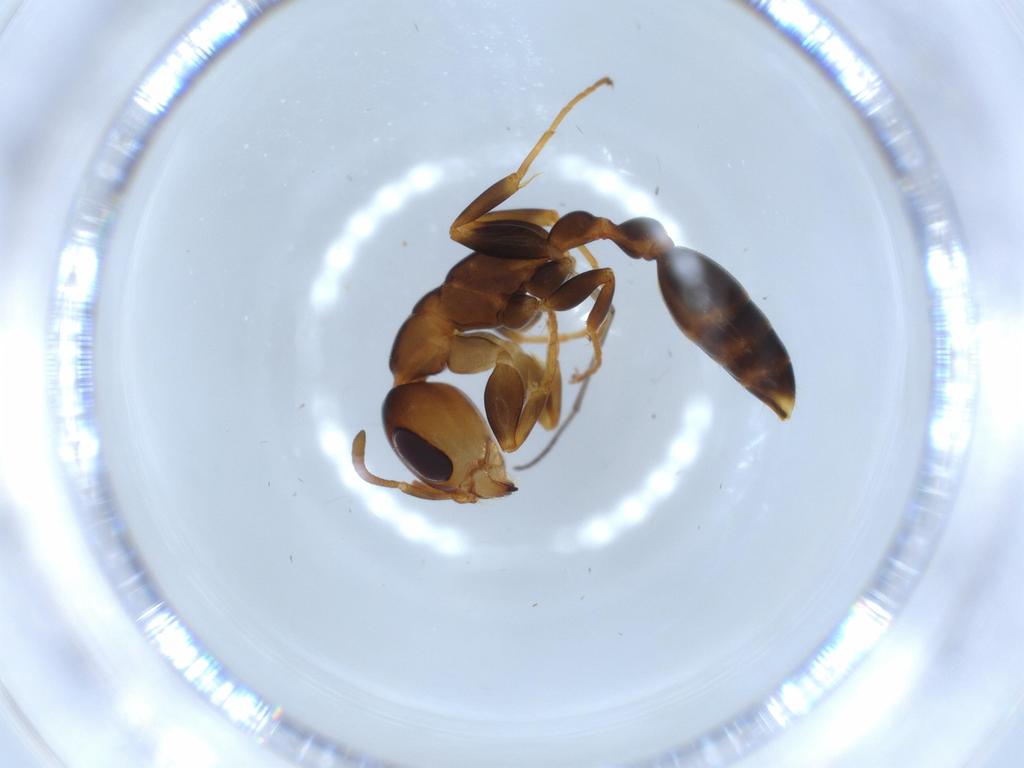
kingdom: Animalia
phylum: Arthropoda
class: Insecta
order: Hymenoptera
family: Formicidae
